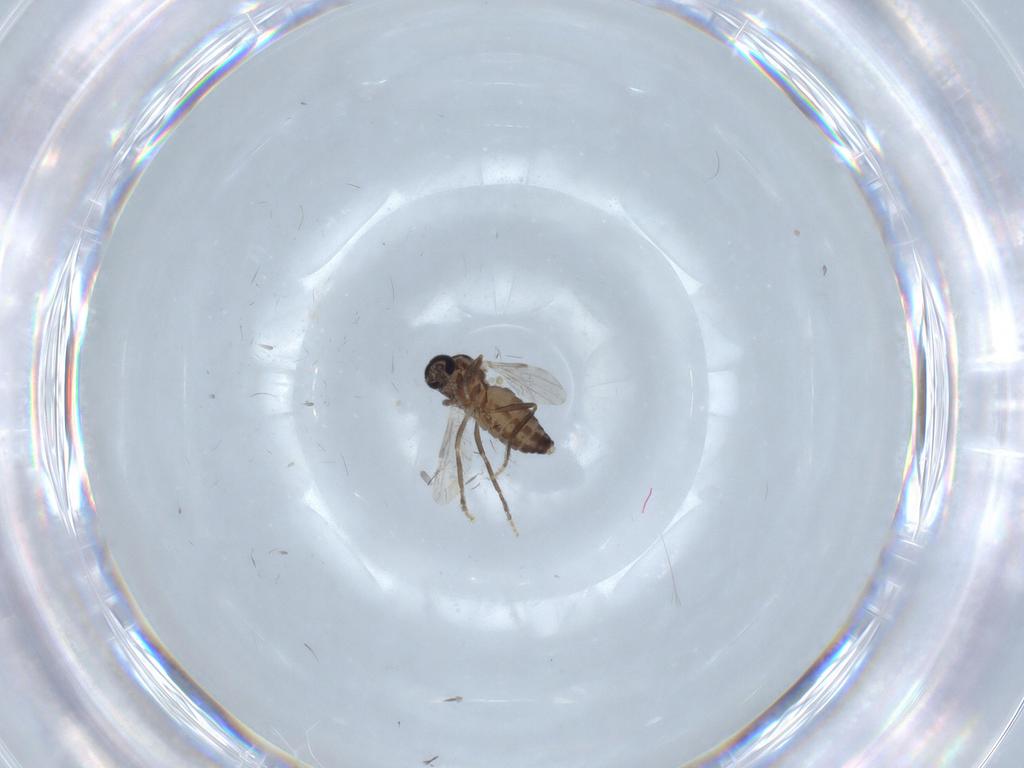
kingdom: Animalia
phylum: Arthropoda
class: Insecta
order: Diptera
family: Ceratopogonidae
